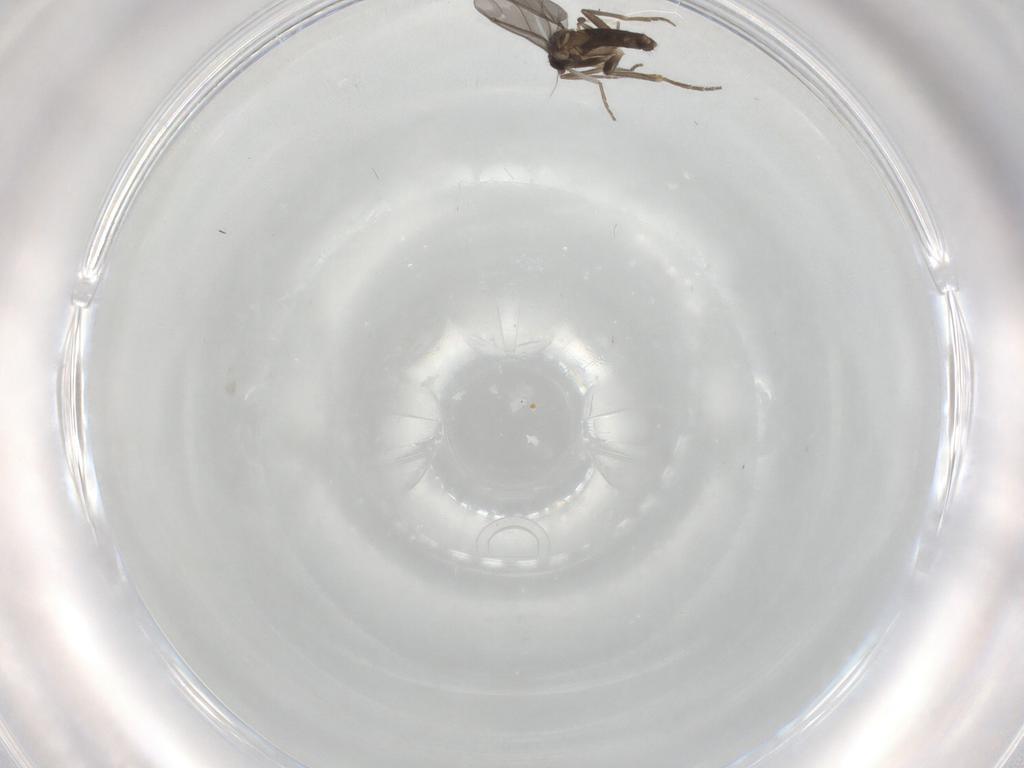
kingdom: Animalia
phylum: Arthropoda
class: Insecta
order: Diptera
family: Phoridae
